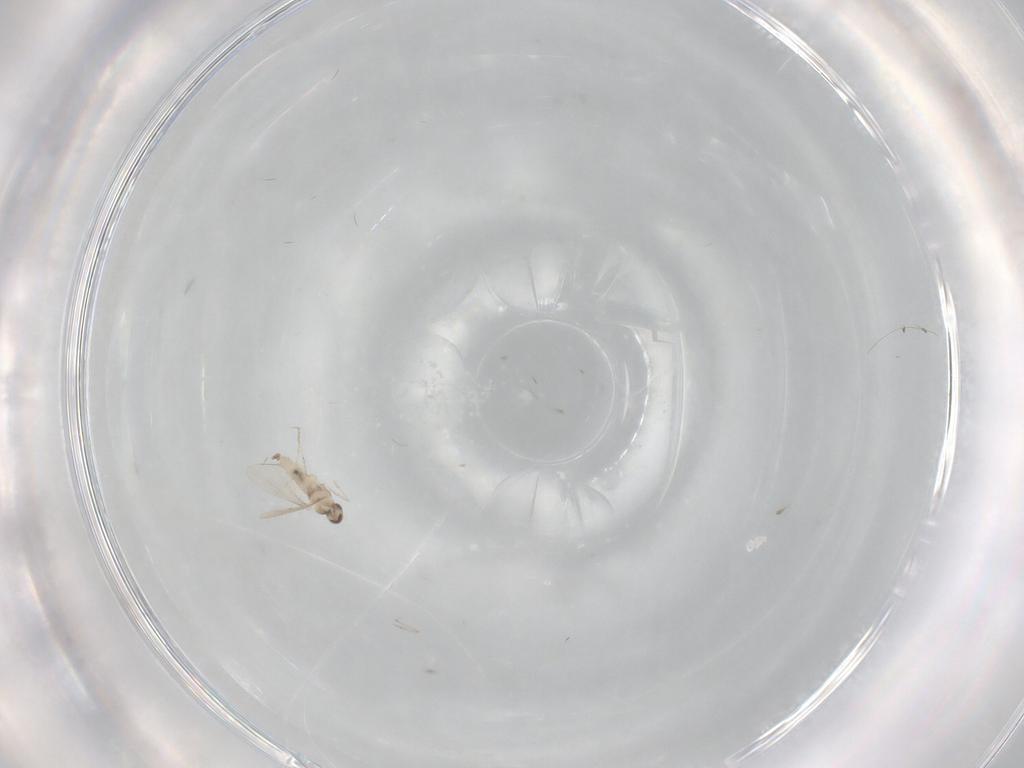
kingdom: Animalia
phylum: Arthropoda
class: Insecta
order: Diptera
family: Cecidomyiidae
